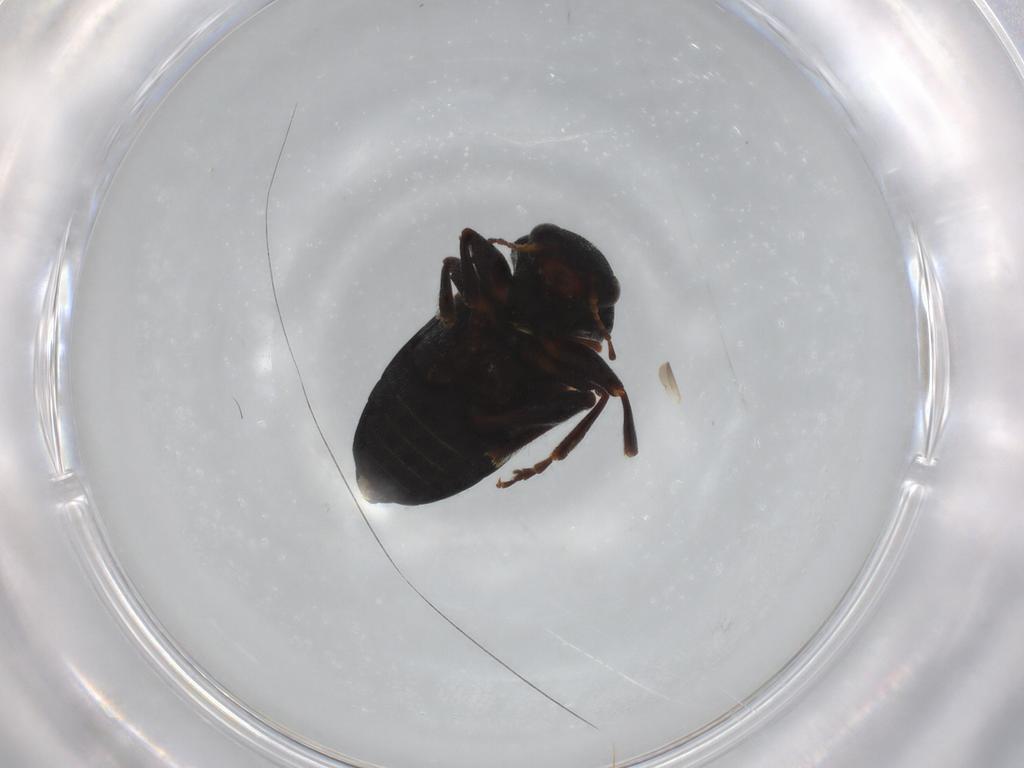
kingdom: Animalia
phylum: Arthropoda
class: Insecta
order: Coleoptera
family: Chrysomelidae
